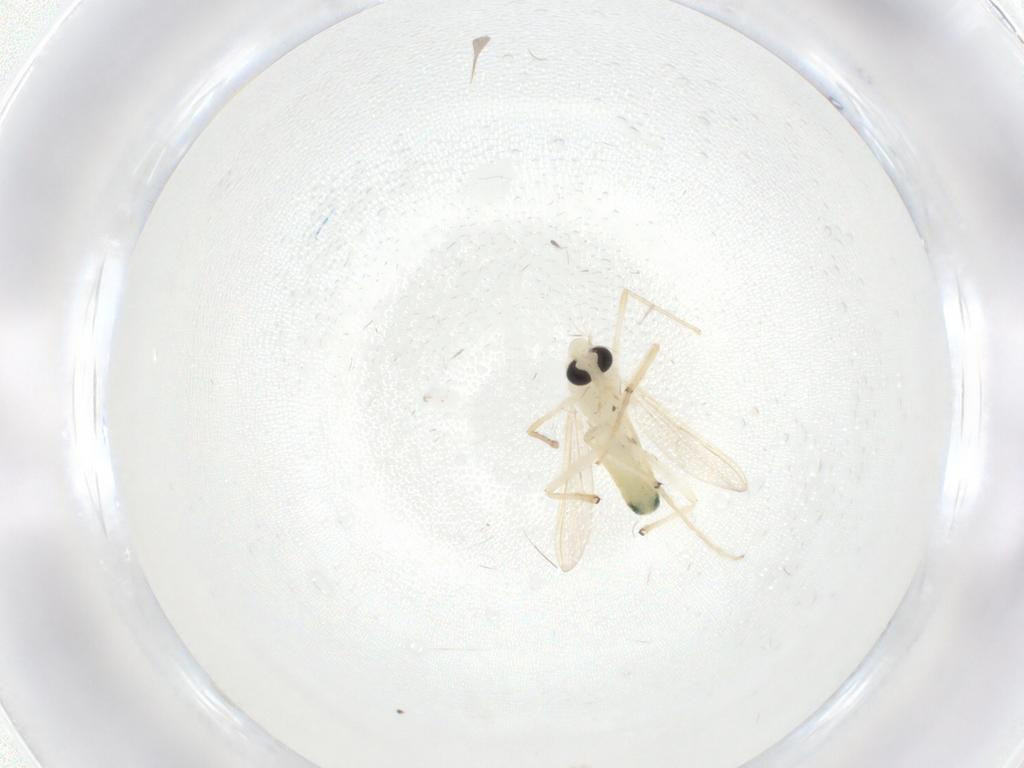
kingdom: Animalia
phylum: Arthropoda
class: Insecta
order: Diptera
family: Chironomidae
